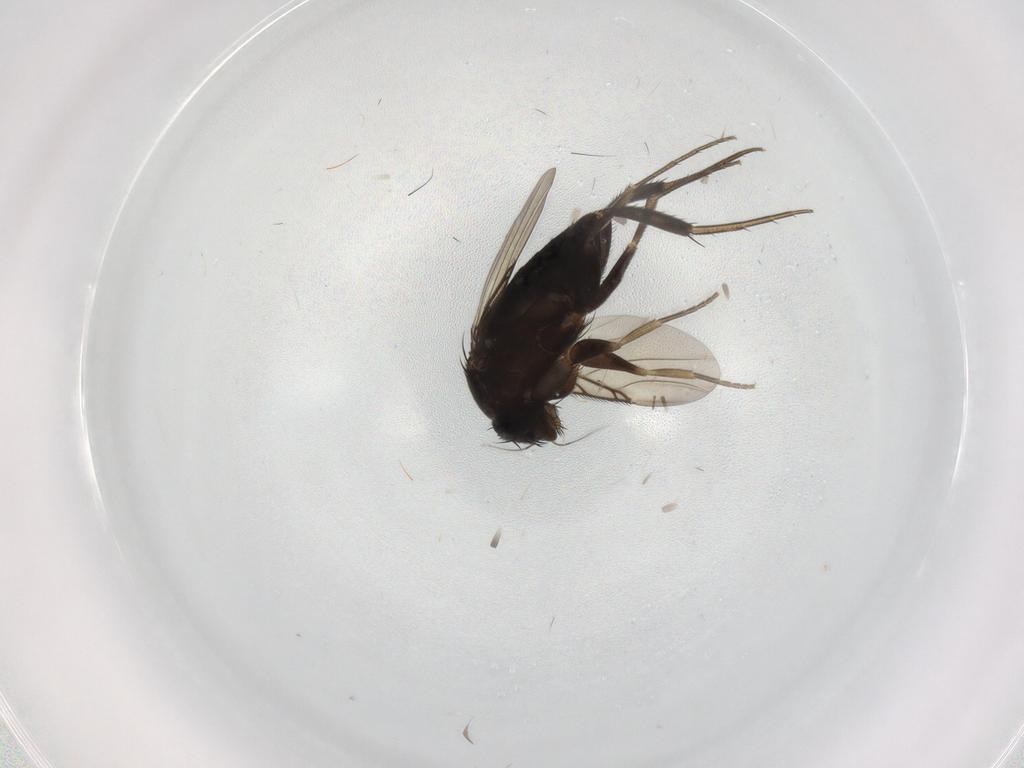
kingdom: Animalia
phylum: Arthropoda
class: Insecta
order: Diptera
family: Phoridae
